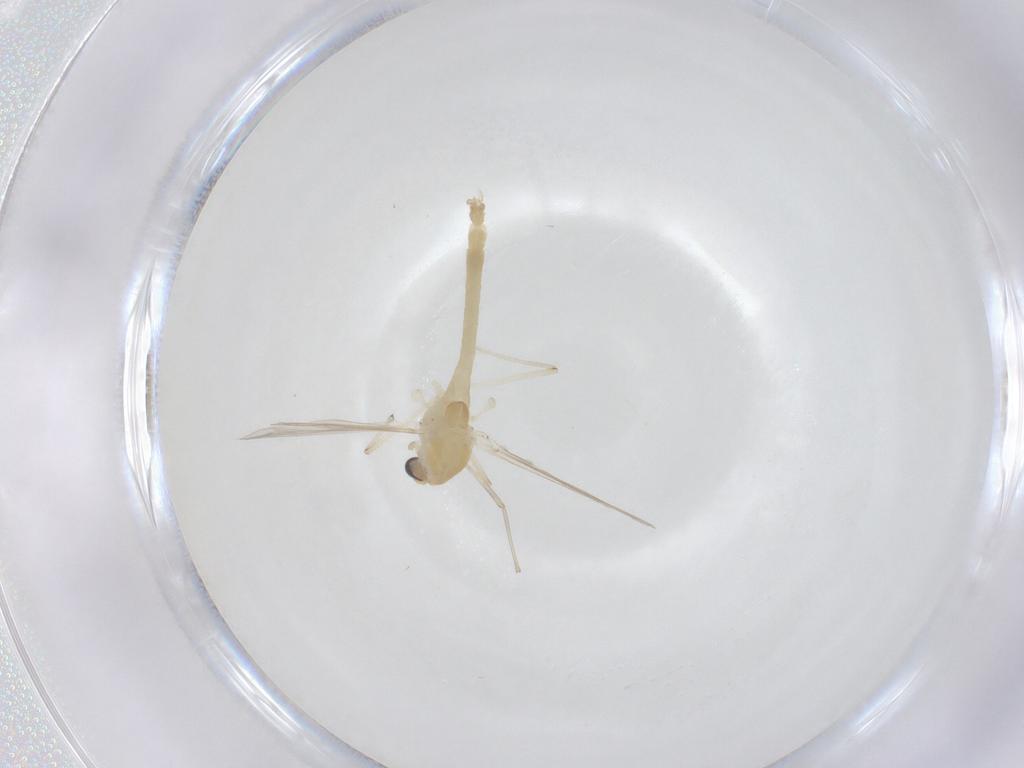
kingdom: Animalia
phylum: Arthropoda
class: Insecta
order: Diptera
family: Chironomidae
